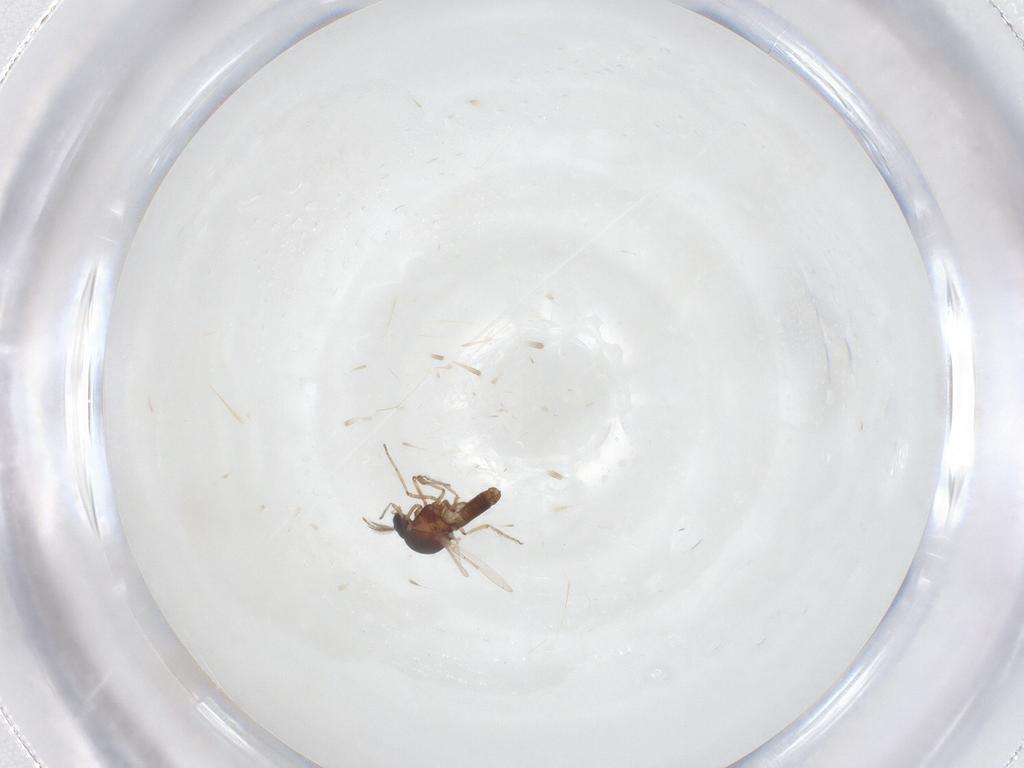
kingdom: Animalia
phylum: Arthropoda
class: Insecta
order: Diptera
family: Ceratopogonidae
